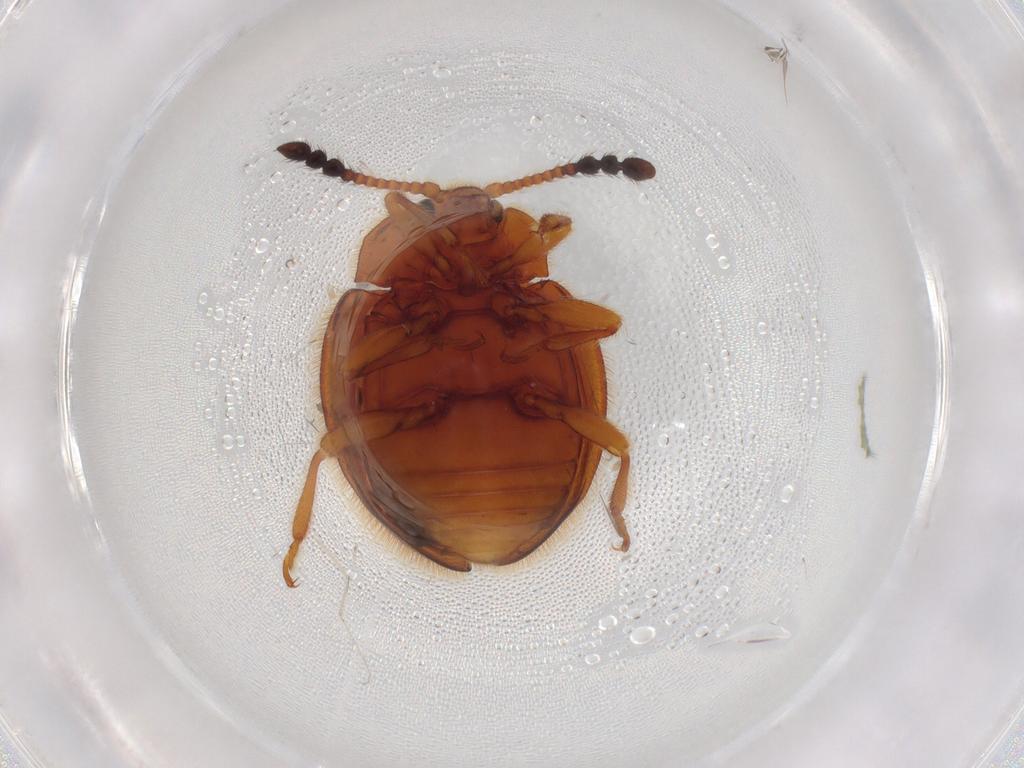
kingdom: Animalia
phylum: Arthropoda
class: Insecta
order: Coleoptera
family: Endomychidae
